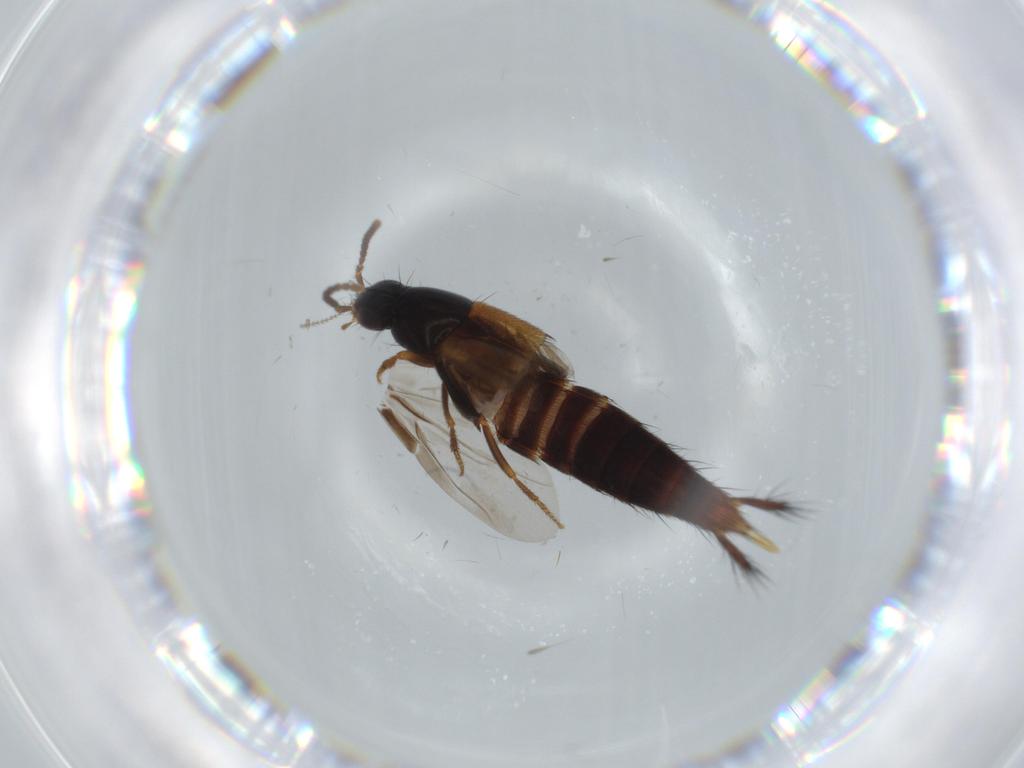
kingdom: Animalia
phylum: Arthropoda
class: Insecta
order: Coleoptera
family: Staphylinidae
